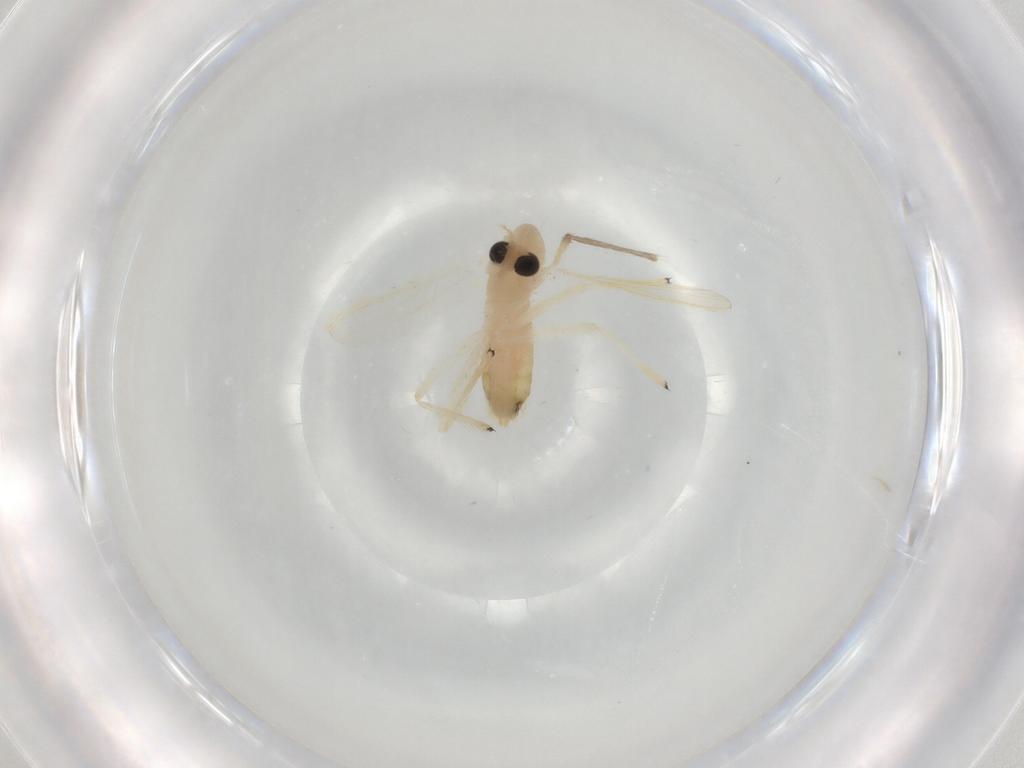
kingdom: Animalia
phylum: Arthropoda
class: Insecta
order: Diptera
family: Chironomidae
